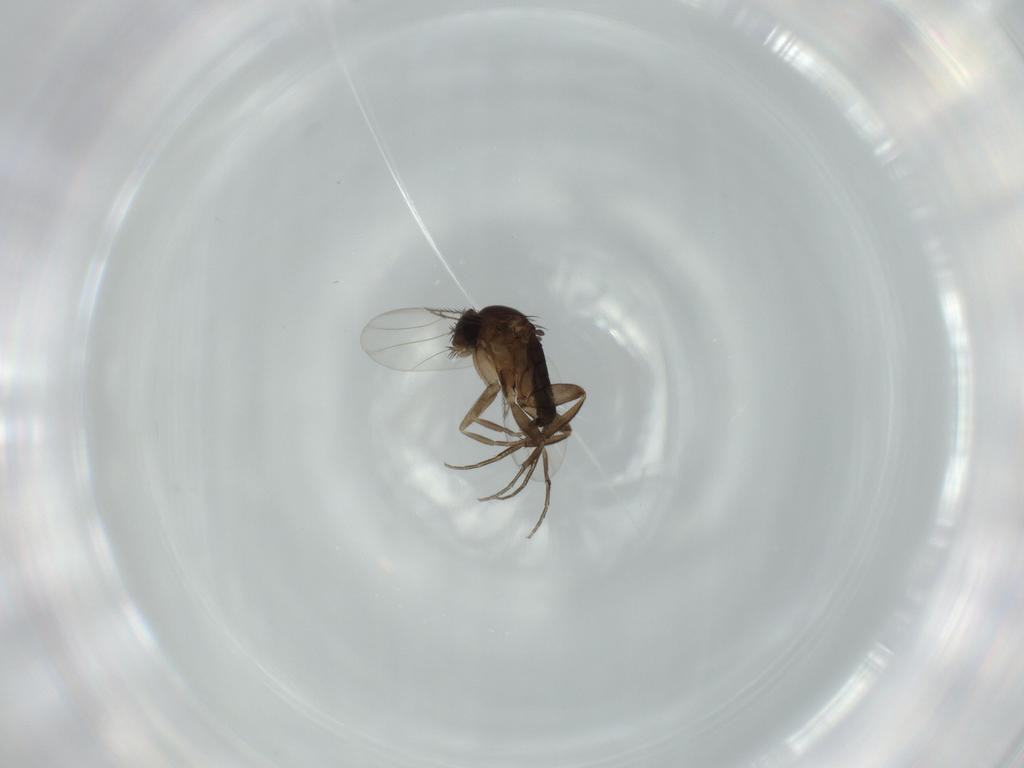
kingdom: Animalia
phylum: Arthropoda
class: Insecta
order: Diptera
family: Phoridae
